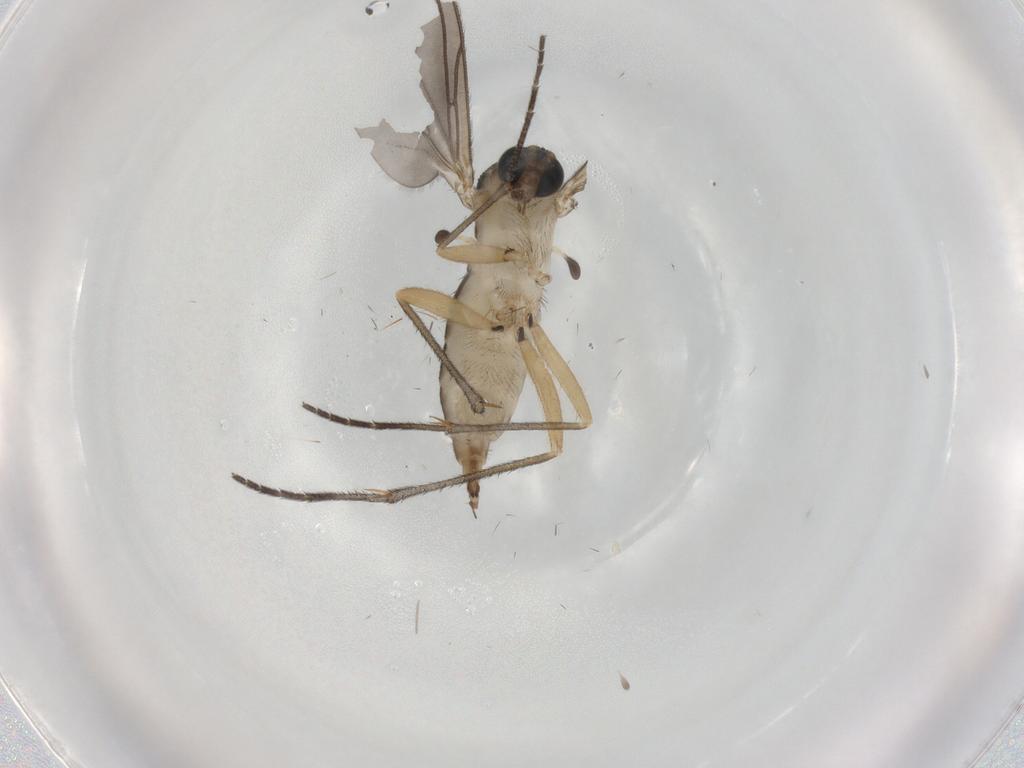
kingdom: Animalia
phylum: Arthropoda
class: Insecta
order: Diptera
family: Sciaridae
